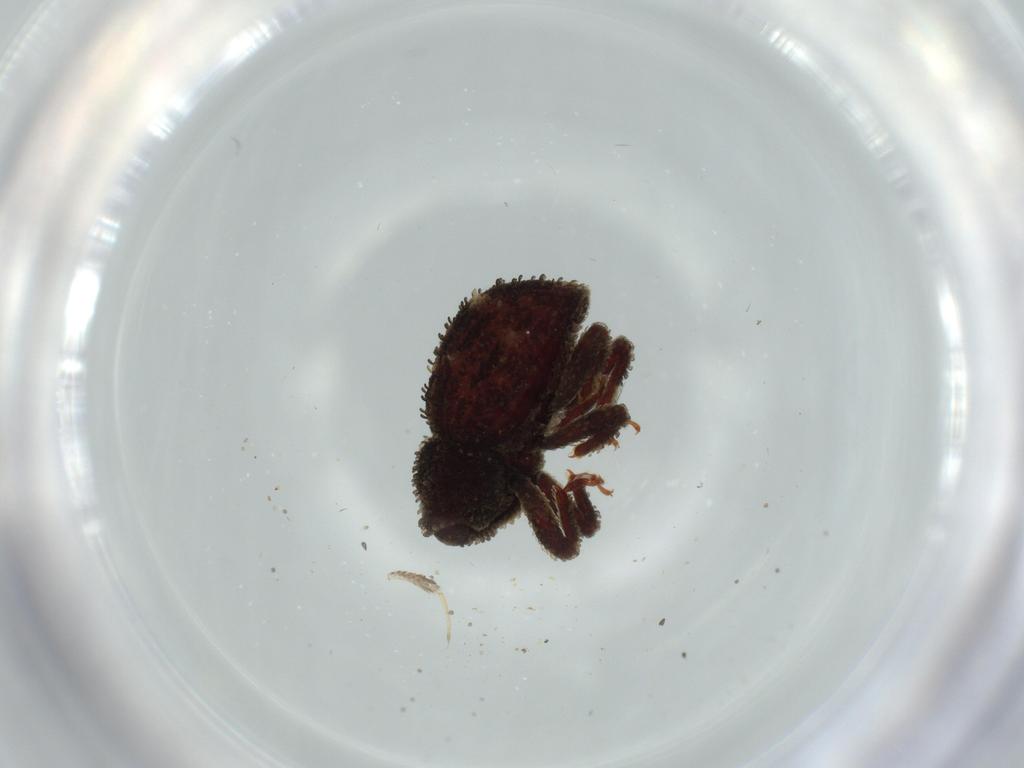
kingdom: Animalia
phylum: Arthropoda
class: Insecta
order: Coleoptera
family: Curculionidae
